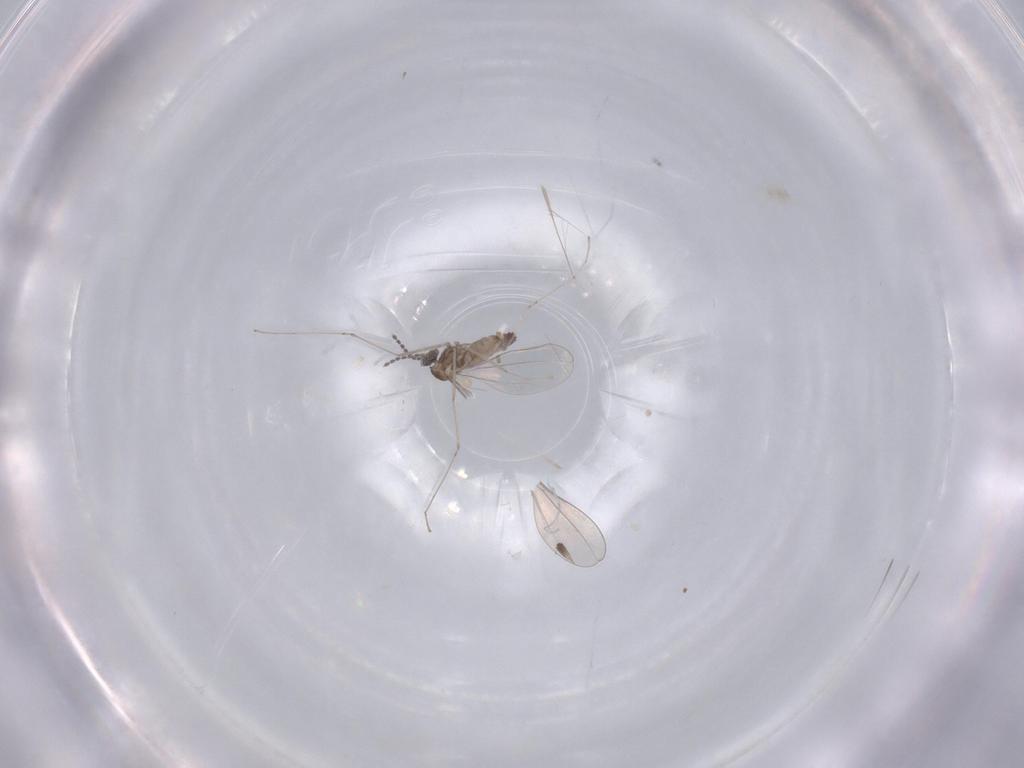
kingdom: Animalia
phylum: Arthropoda
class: Insecta
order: Diptera
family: Cecidomyiidae
